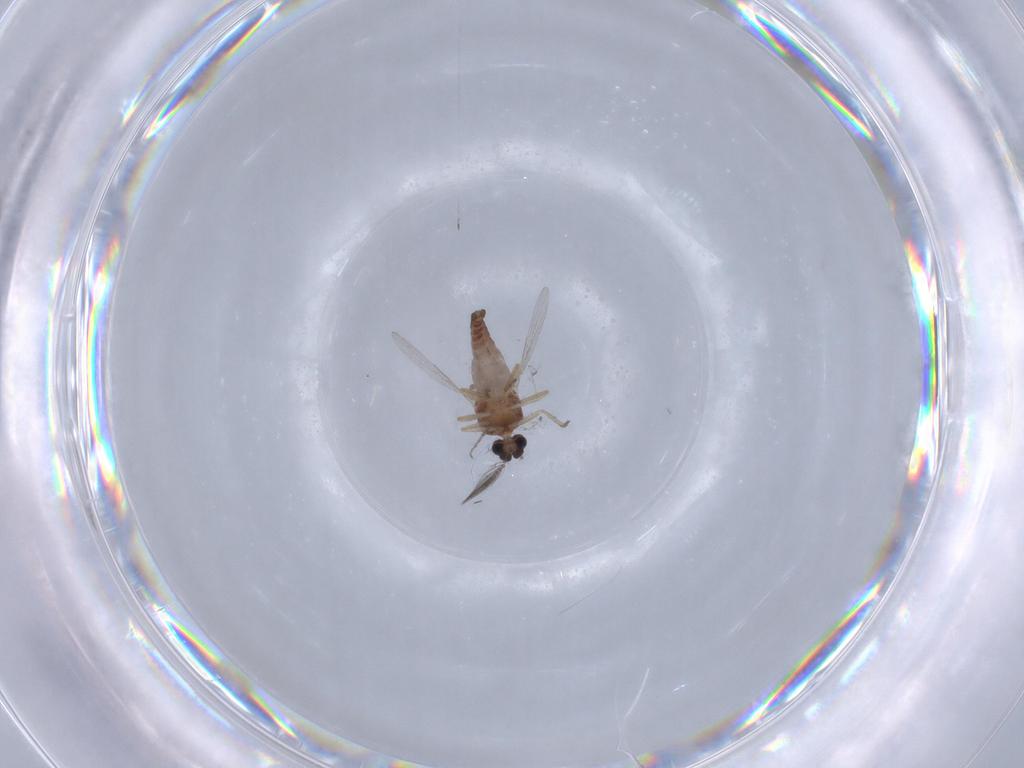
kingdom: Animalia
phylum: Arthropoda
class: Insecta
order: Diptera
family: Ceratopogonidae
